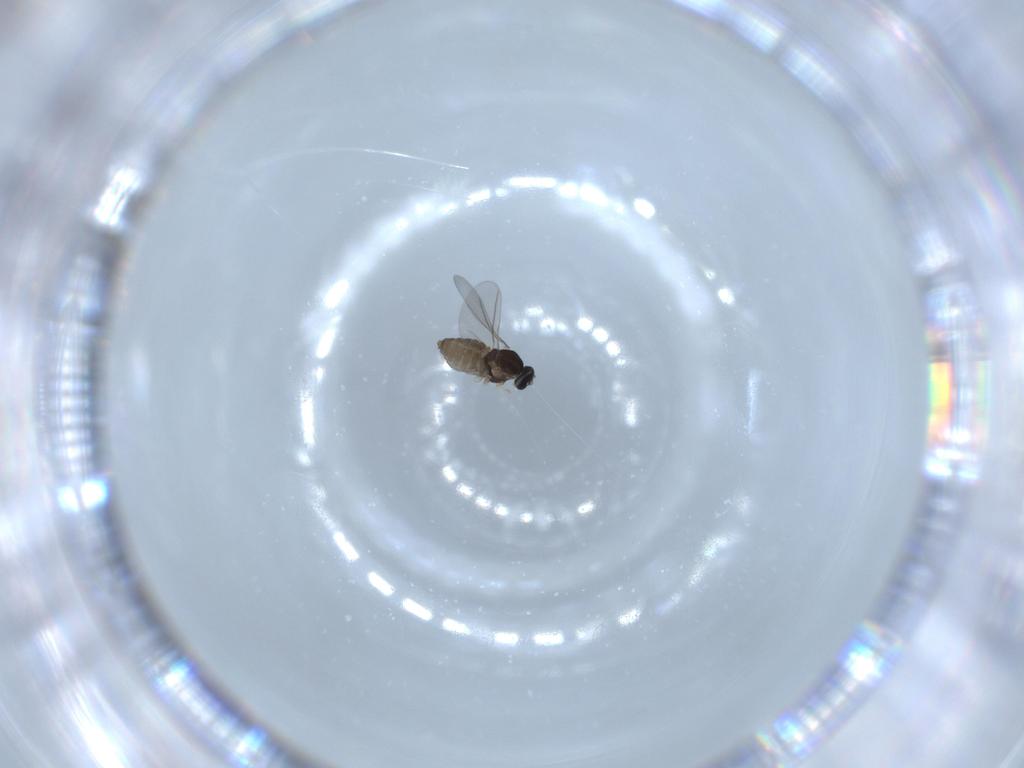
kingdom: Animalia
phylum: Arthropoda
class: Insecta
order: Diptera
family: Cecidomyiidae
